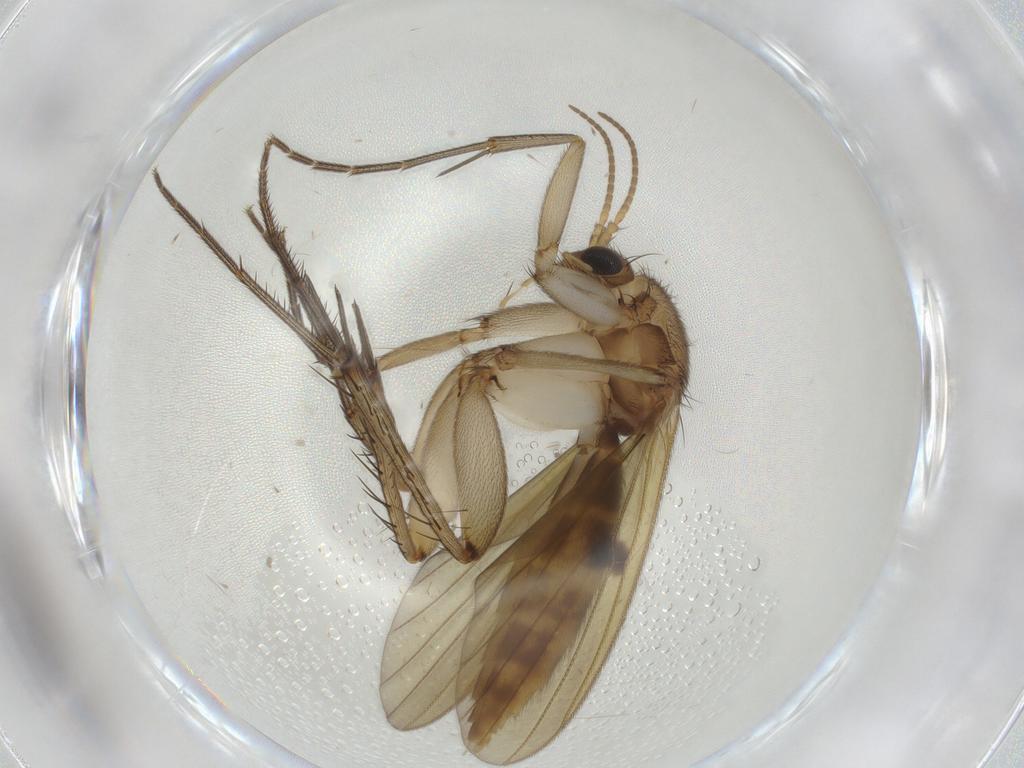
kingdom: Animalia
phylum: Arthropoda
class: Insecta
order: Diptera
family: Mycetophilidae
